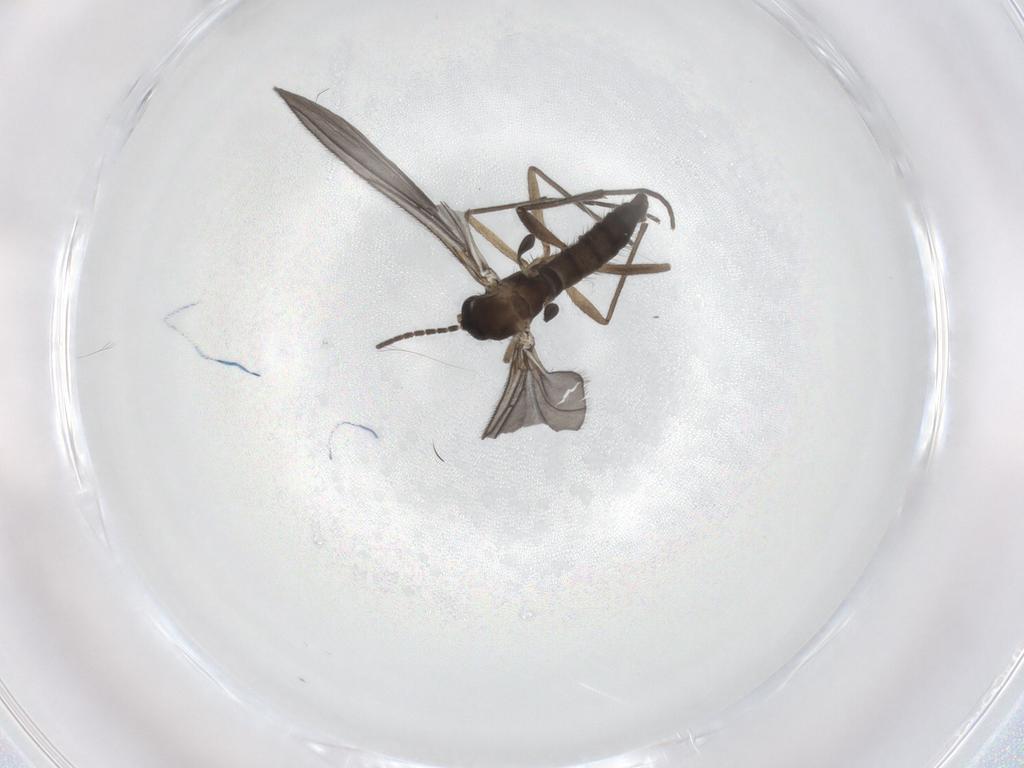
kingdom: Animalia
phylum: Arthropoda
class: Insecta
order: Diptera
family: Sciaridae
